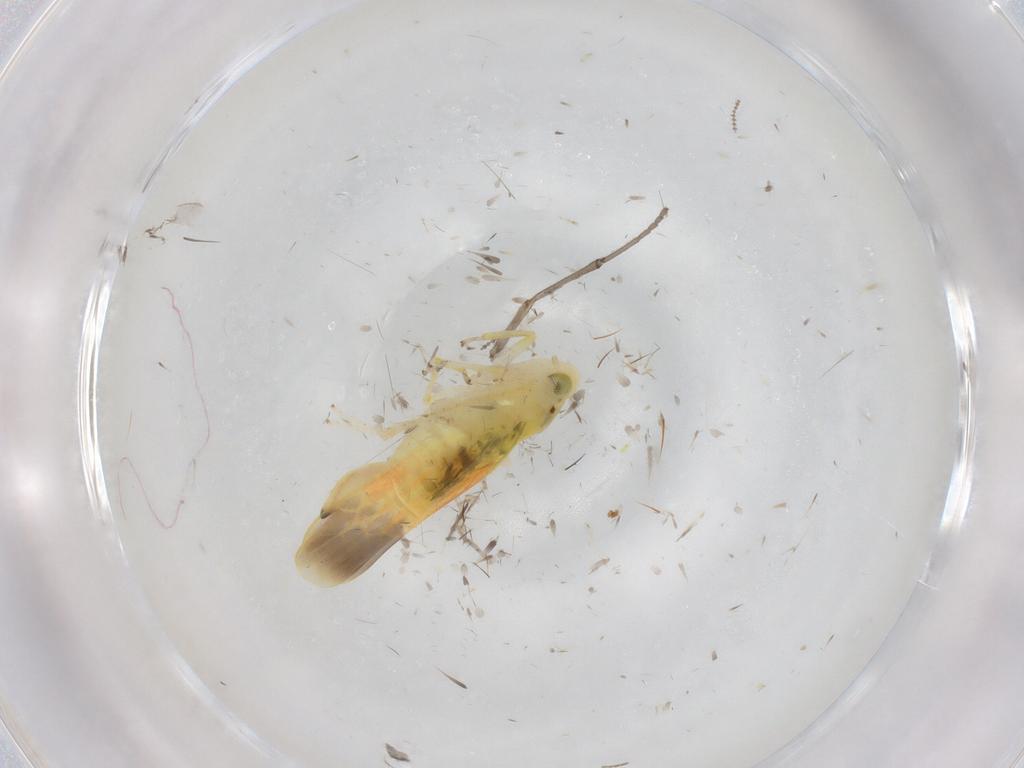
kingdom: Animalia
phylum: Arthropoda
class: Insecta
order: Hemiptera
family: Cicadellidae
